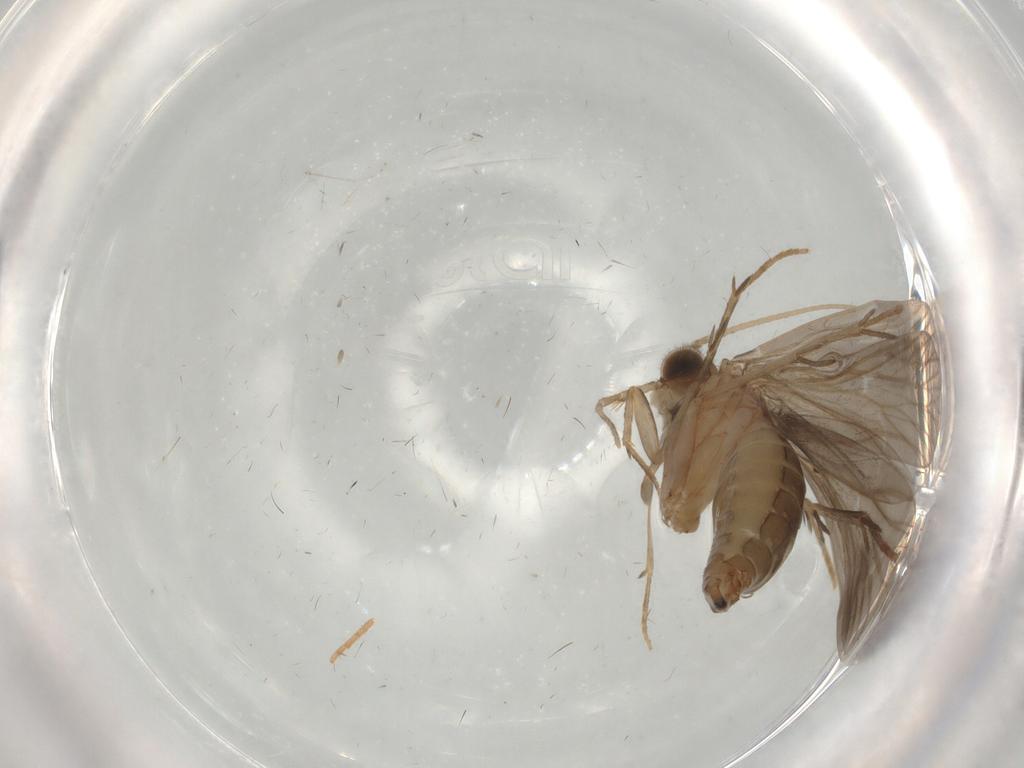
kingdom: Animalia
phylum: Arthropoda
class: Insecta
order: Trichoptera
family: Philopotamidae
